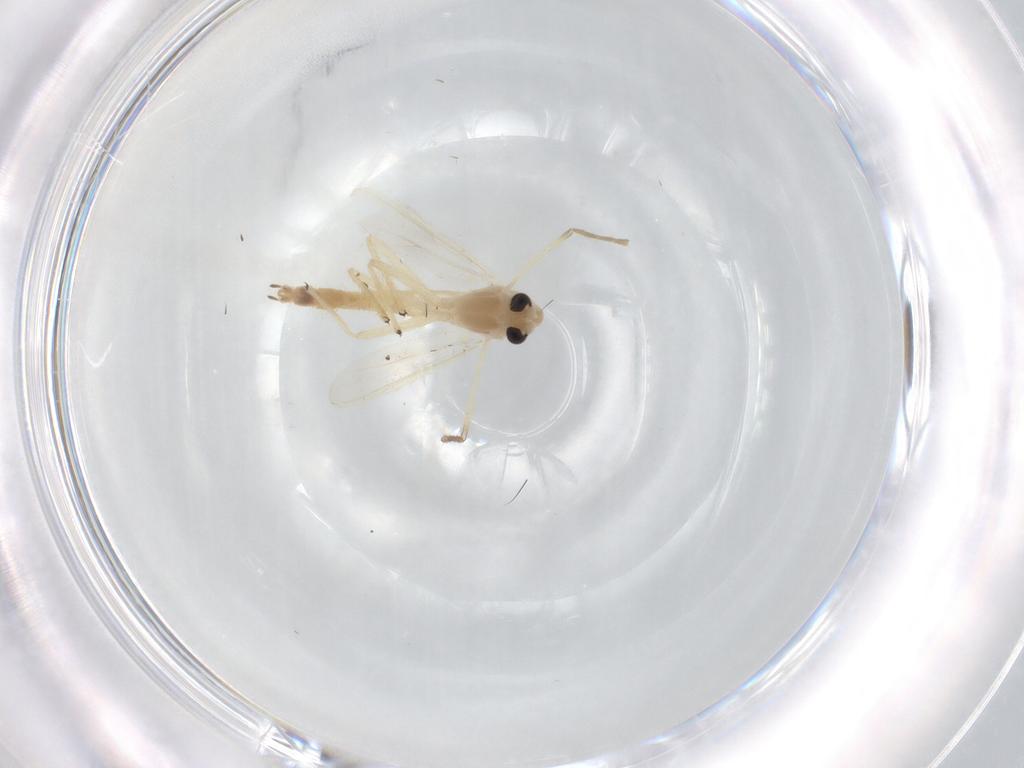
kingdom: Animalia
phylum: Arthropoda
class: Insecta
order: Diptera
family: Chironomidae
